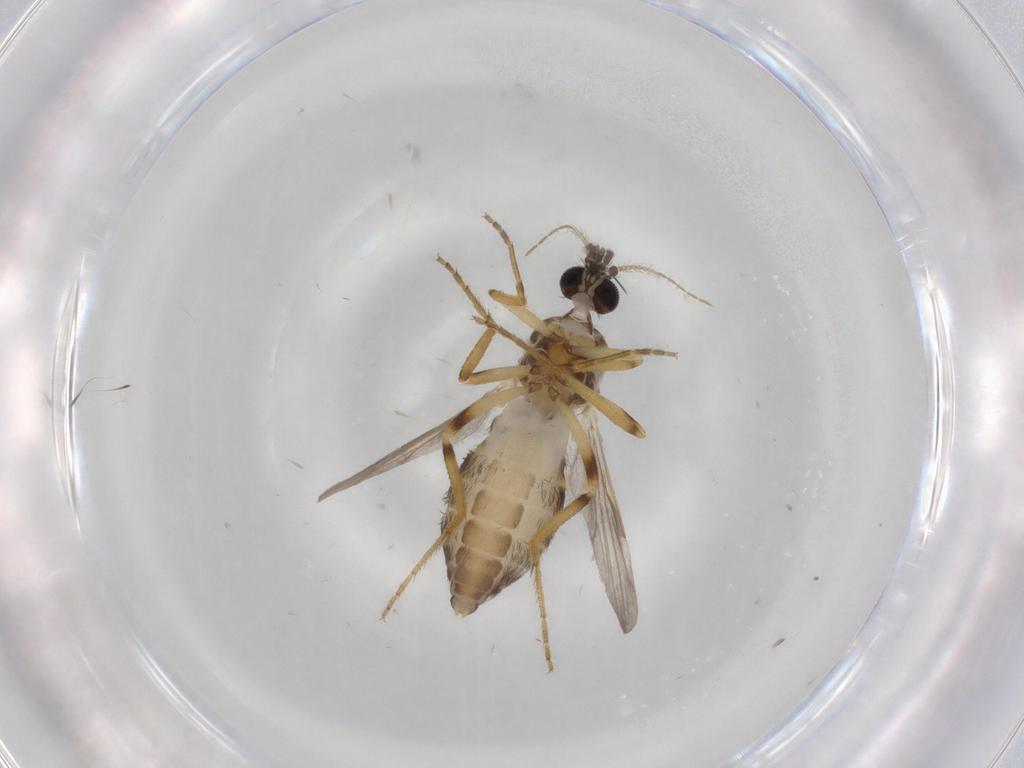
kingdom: Animalia
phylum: Arthropoda
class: Insecta
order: Diptera
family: Ceratopogonidae
